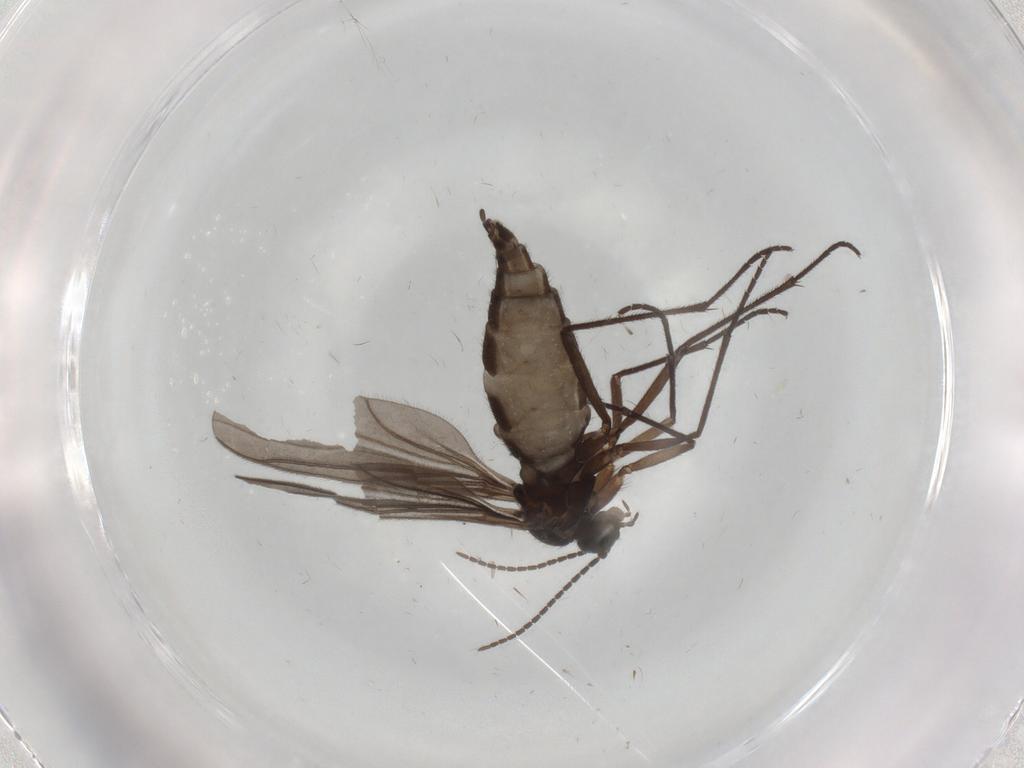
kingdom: Animalia
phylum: Arthropoda
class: Insecta
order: Diptera
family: Sciaridae
